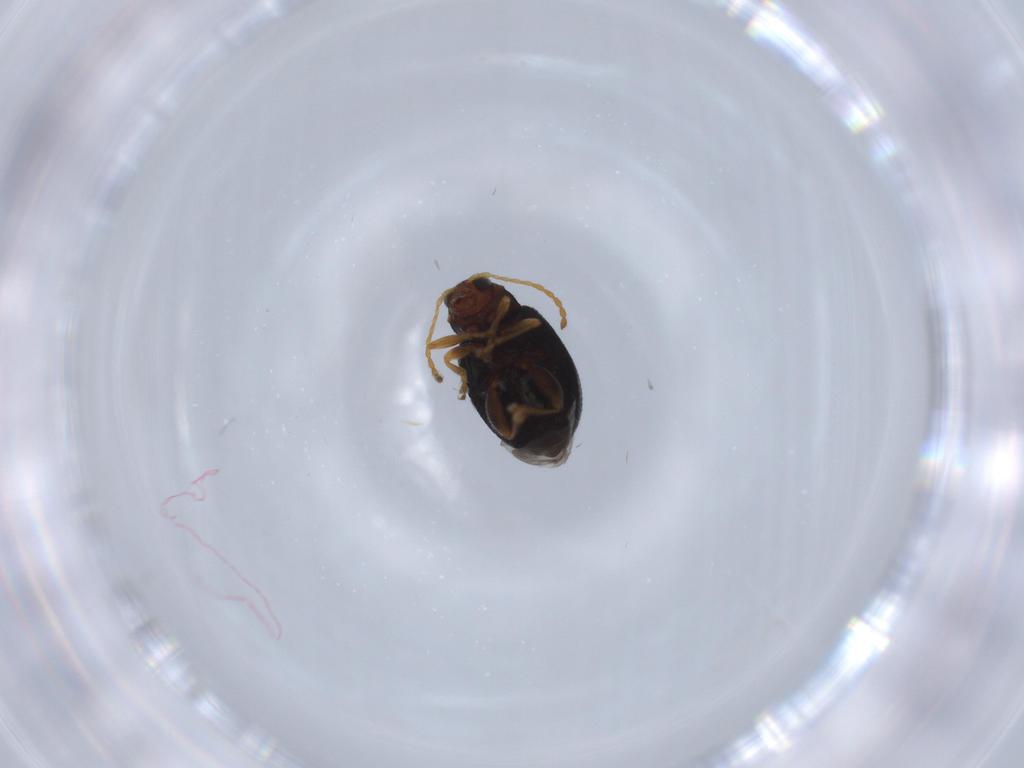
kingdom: Animalia
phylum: Arthropoda
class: Insecta
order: Coleoptera
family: Chrysomelidae
